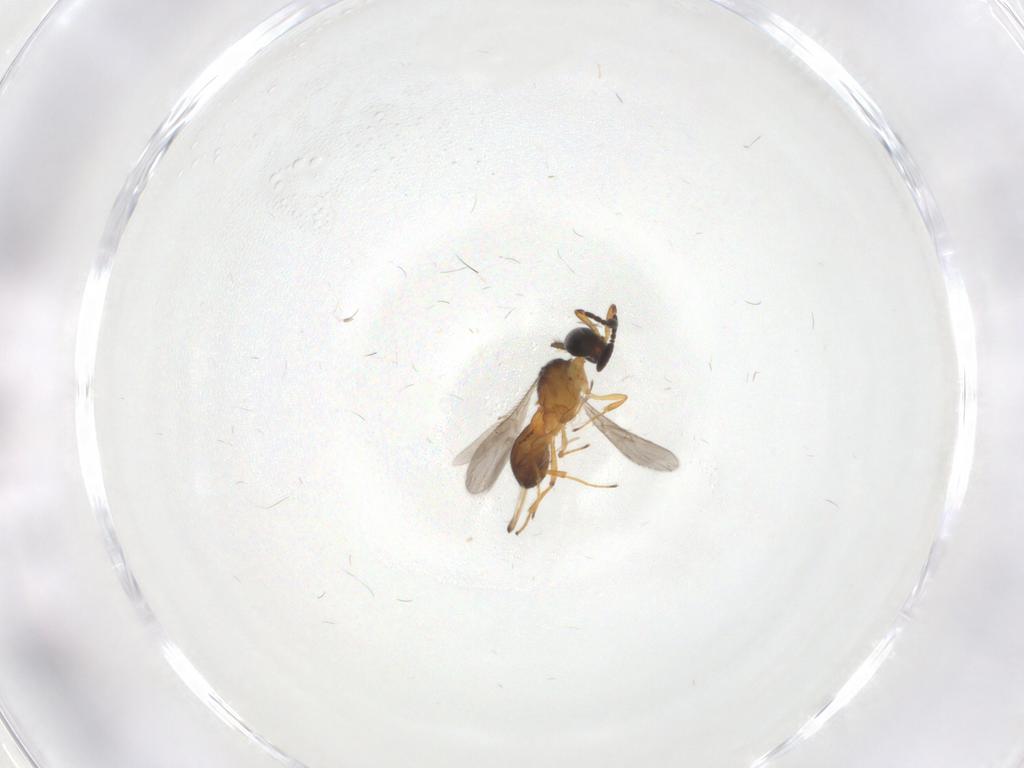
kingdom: Animalia
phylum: Arthropoda
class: Insecta
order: Hymenoptera
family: Scelionidae
